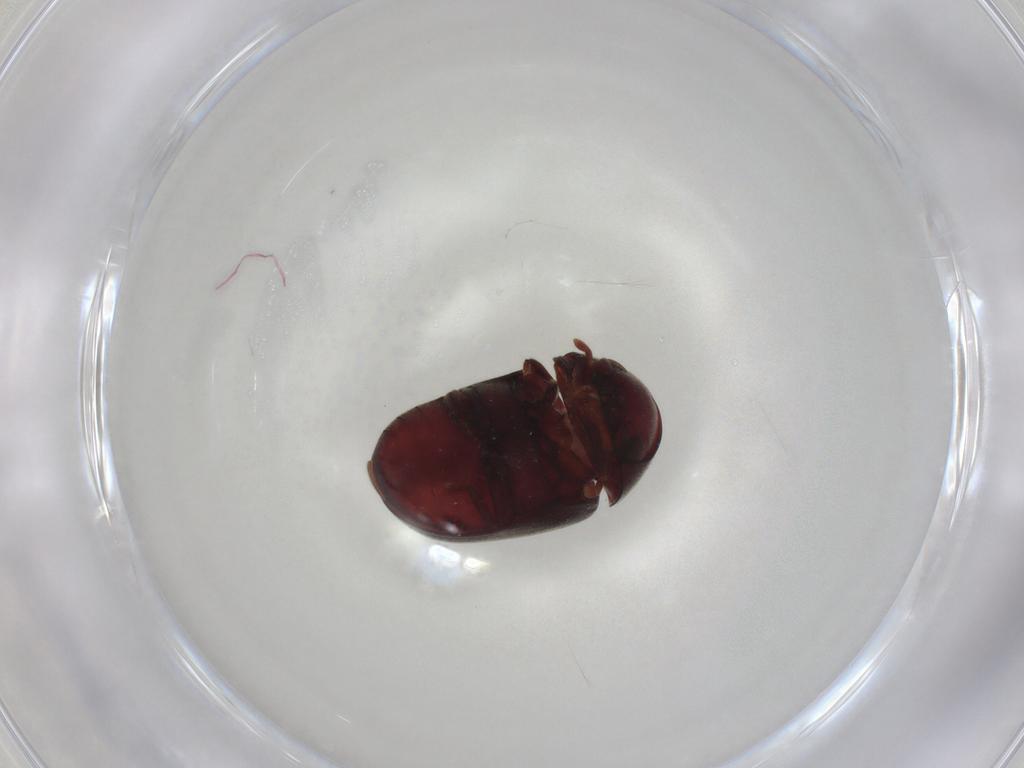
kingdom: Animalia
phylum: Arthropoda
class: Insecta
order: Coleoptera
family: Ptinidae
